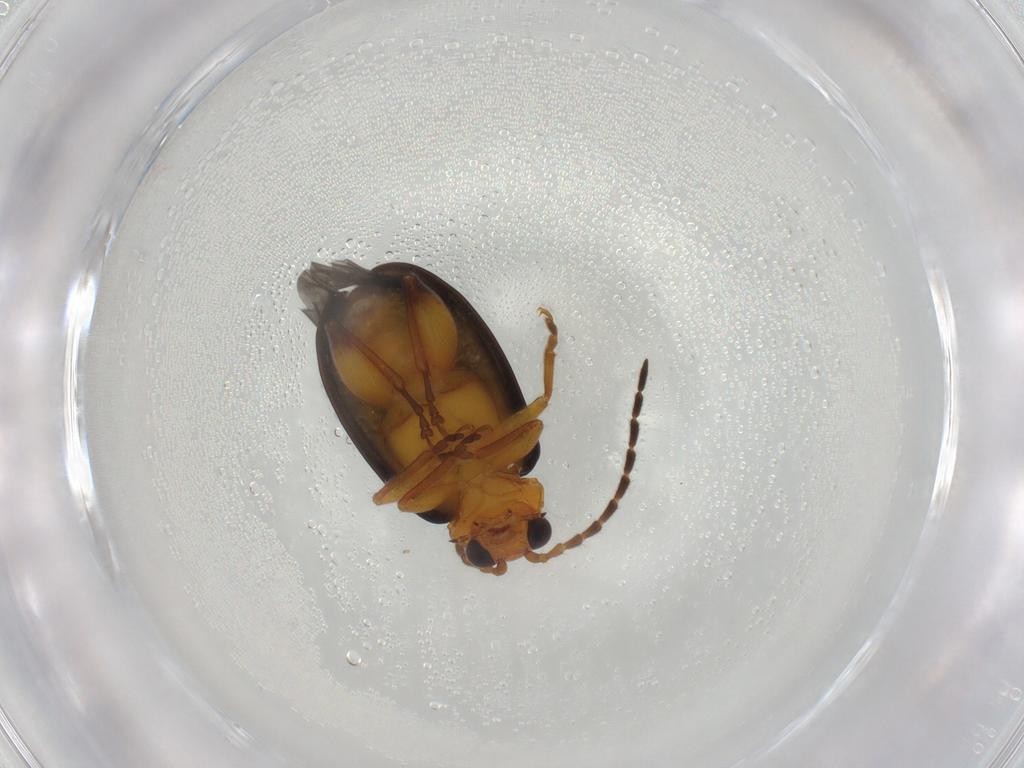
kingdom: Animalia
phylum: Arthropoda
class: Insecta
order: Coleoptera
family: Chrysomelidae
